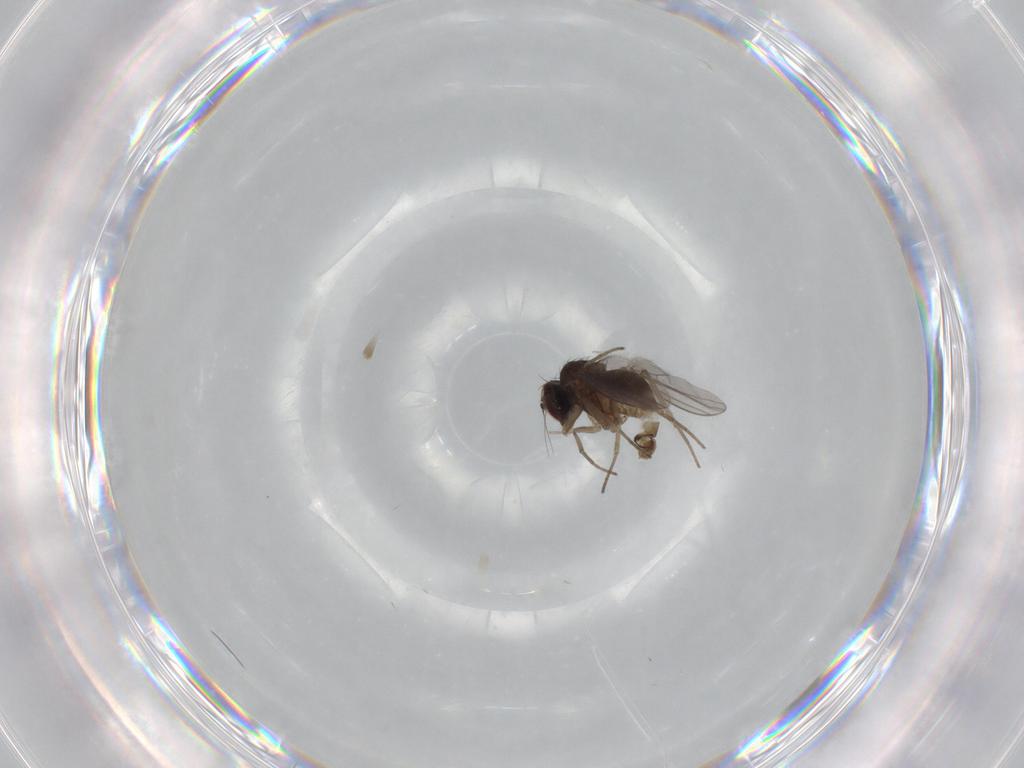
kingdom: Animalia
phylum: Arthropoda
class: Insecta
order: Diptera
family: Dolichopodidae
